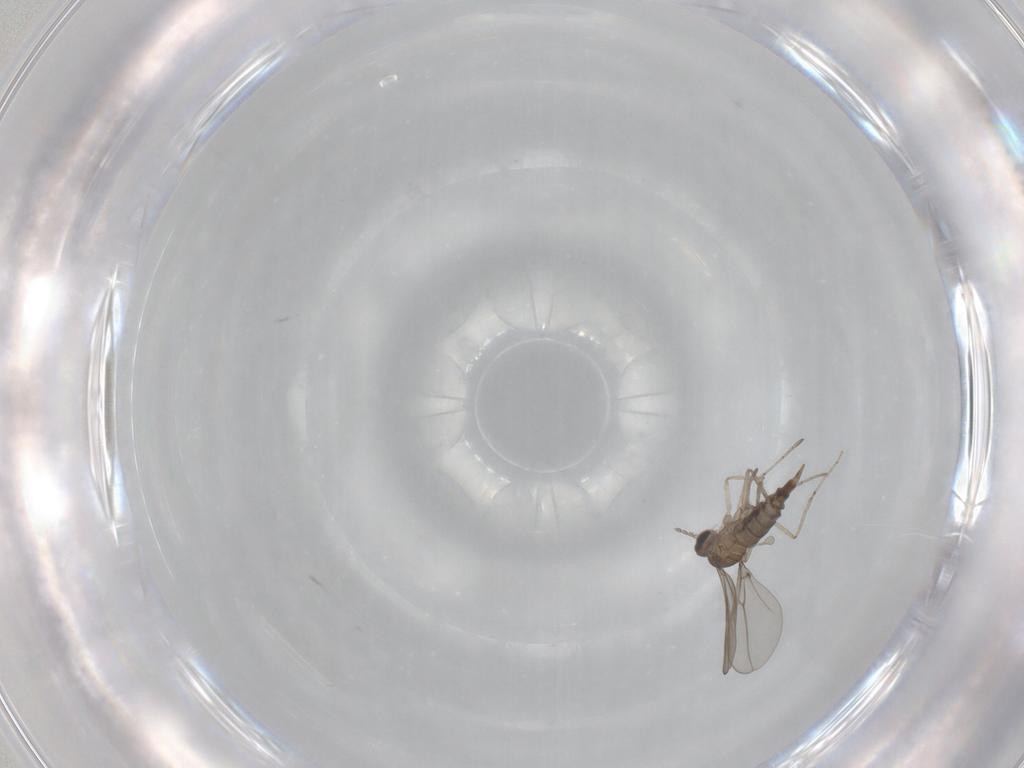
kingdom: Animalia
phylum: Arthropoda
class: Insecta
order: Diptera
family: Cecidomyiidae
